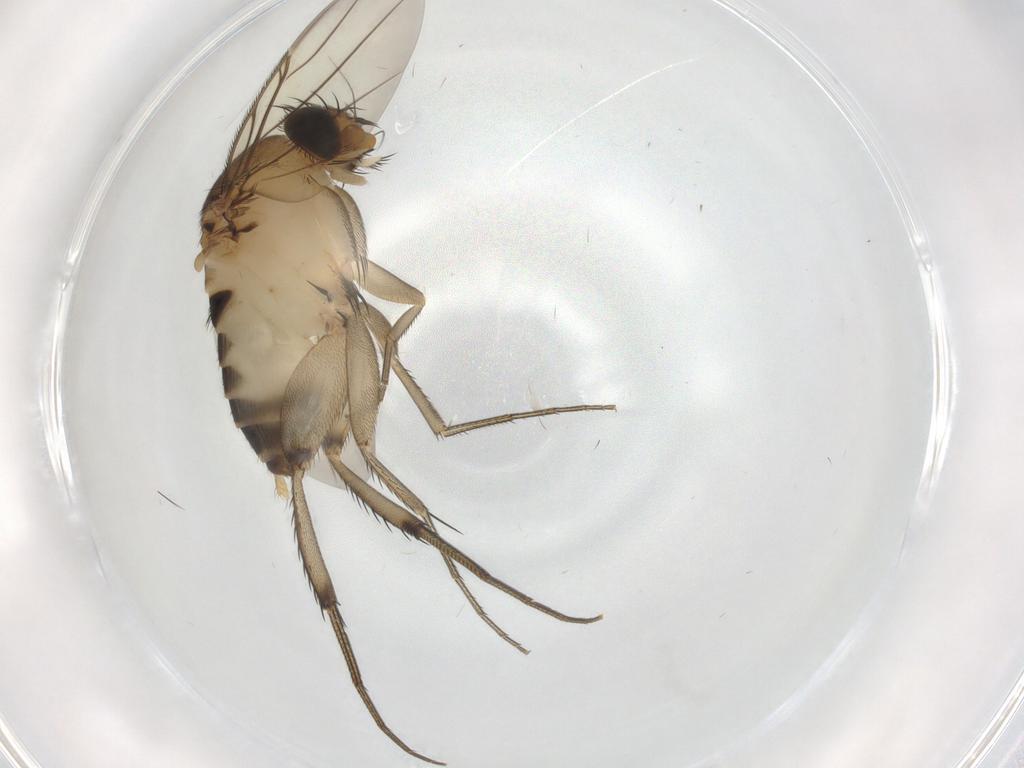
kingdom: Animalia
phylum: Arthropoda
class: Insecta
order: Diptera
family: Phoridae
